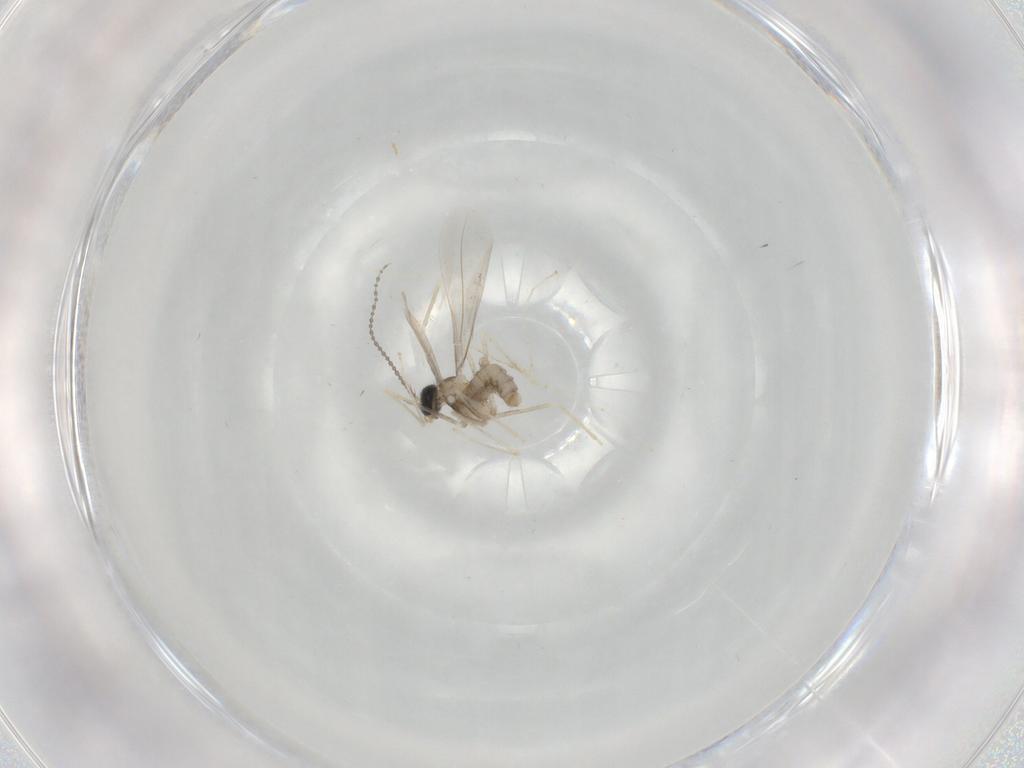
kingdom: Animalia
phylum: Arthropoda
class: Insecta
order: Diptera
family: Cecidomyiidae
